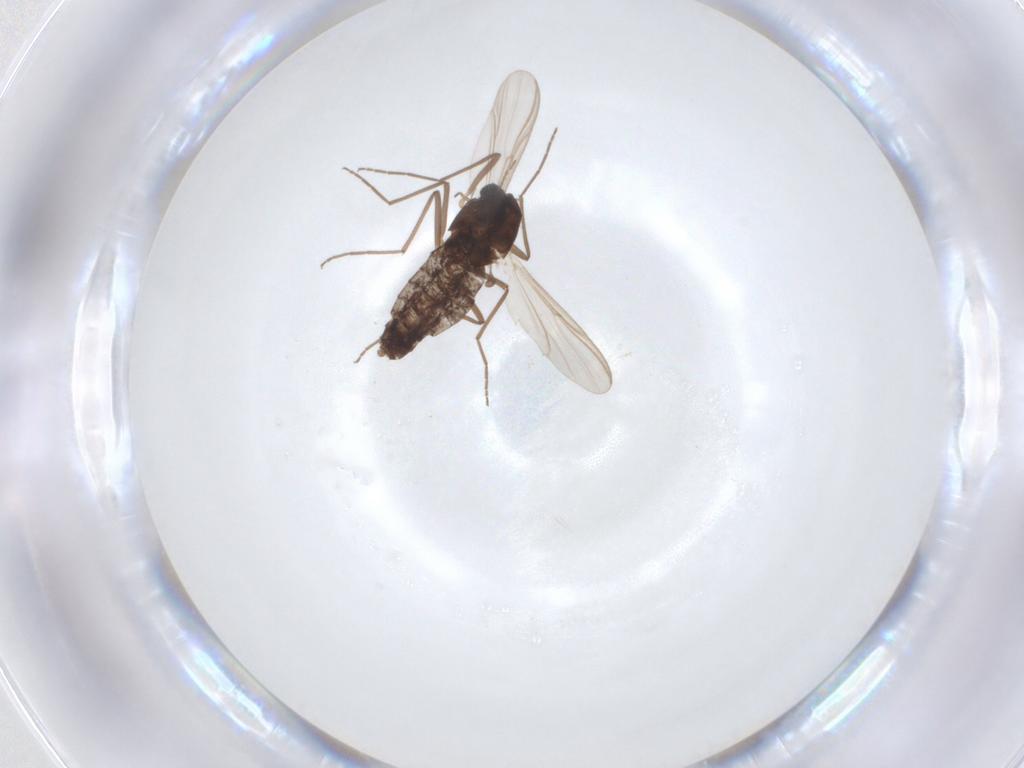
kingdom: Animalia
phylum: Arthropoda
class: Insecta
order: Diptera
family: Chironomidae
